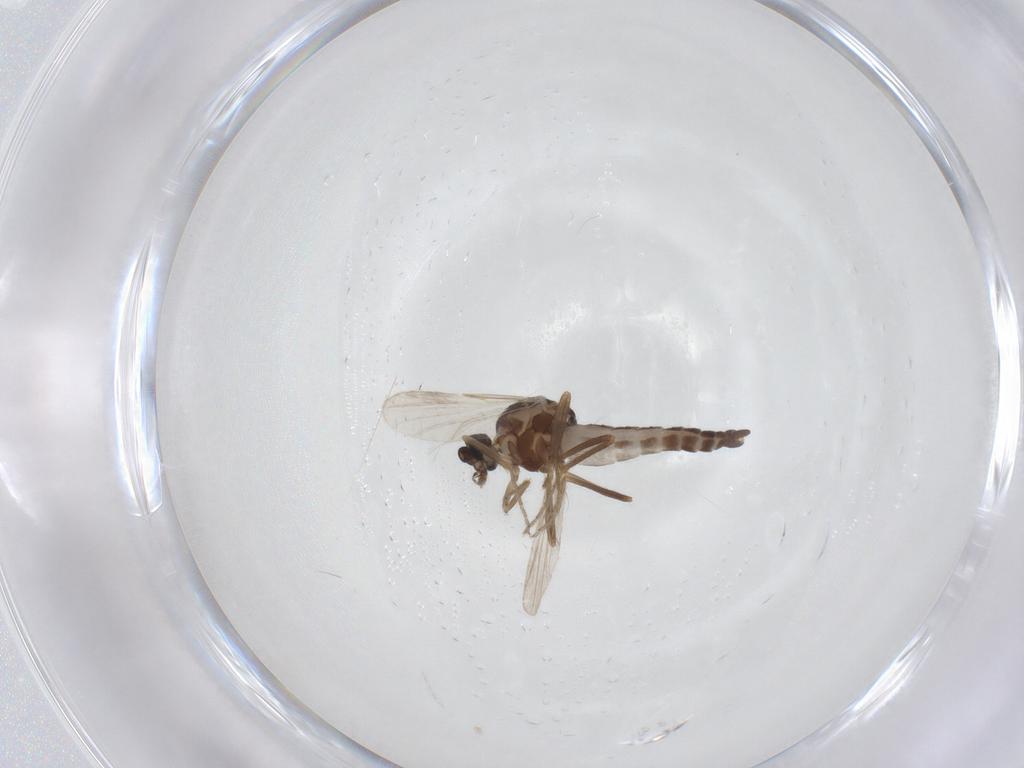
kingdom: Animalia
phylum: Arthropoda
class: Insecta
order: Diptera
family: Ceratopogonidae
